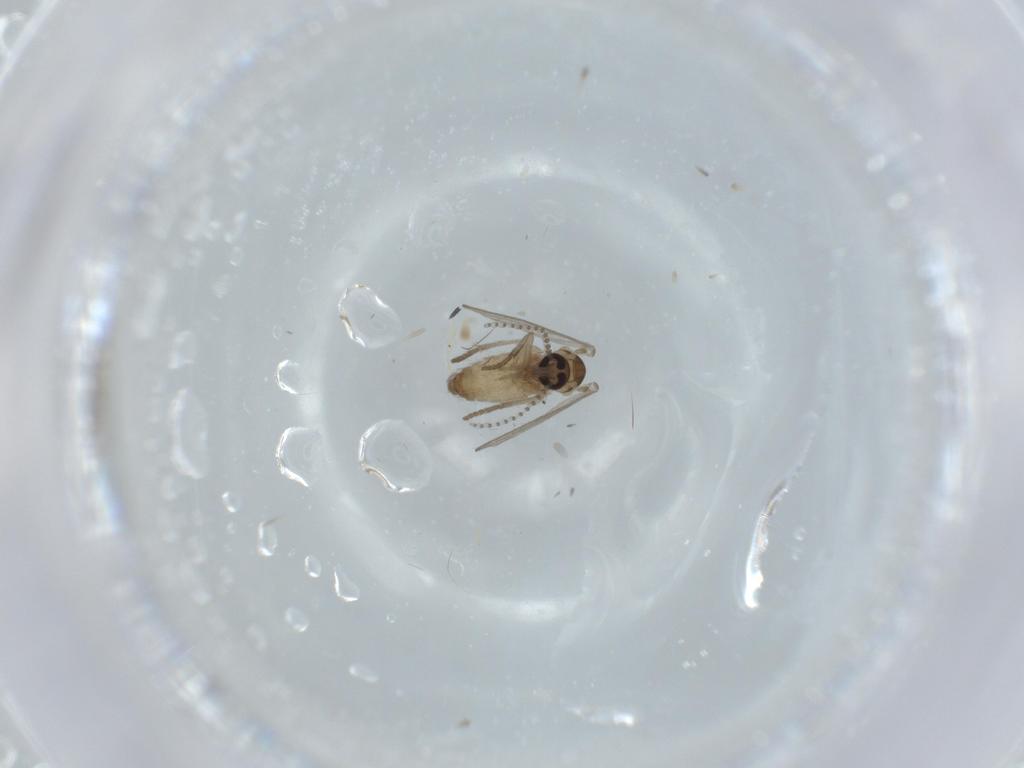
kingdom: Animalia
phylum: Arthropoda
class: Insecta
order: Diptera
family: Psychodidae
